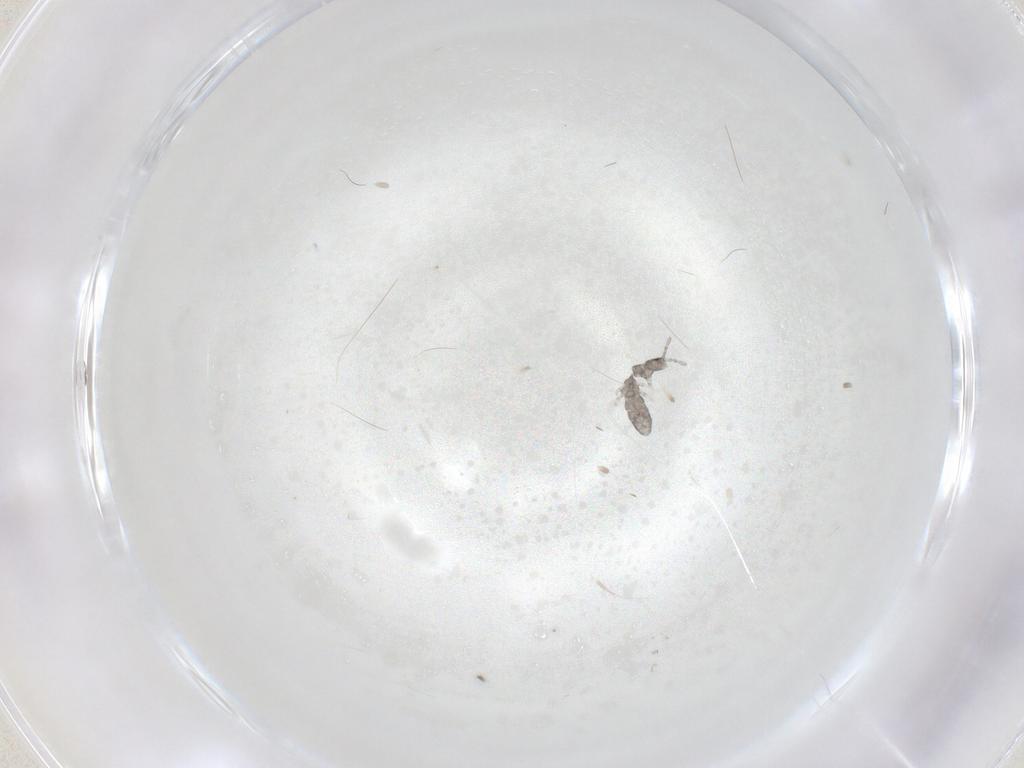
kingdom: Animalia
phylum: Arthropoda
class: Collembola
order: Entomobryomorpha
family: Isotomidae
